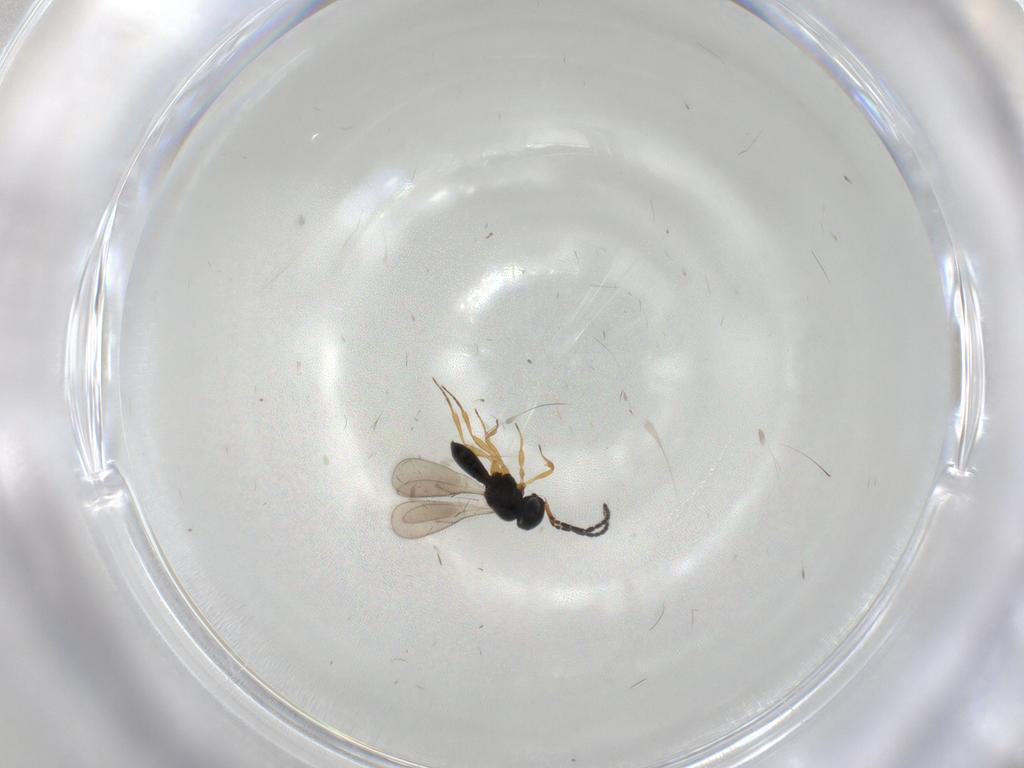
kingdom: Animalia
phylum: Arthropoda
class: Insecta
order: Hymenoptera
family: Scelionidae
